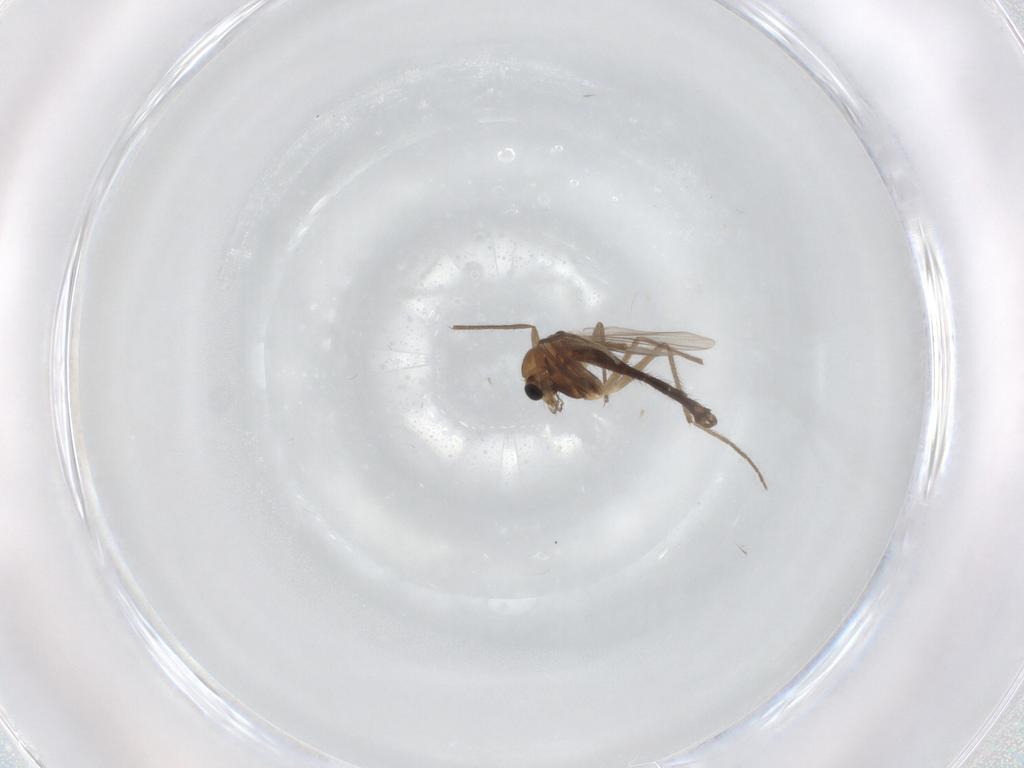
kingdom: Animalia
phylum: Arthropoda
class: Insecta
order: Diptera
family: Chironomidae
